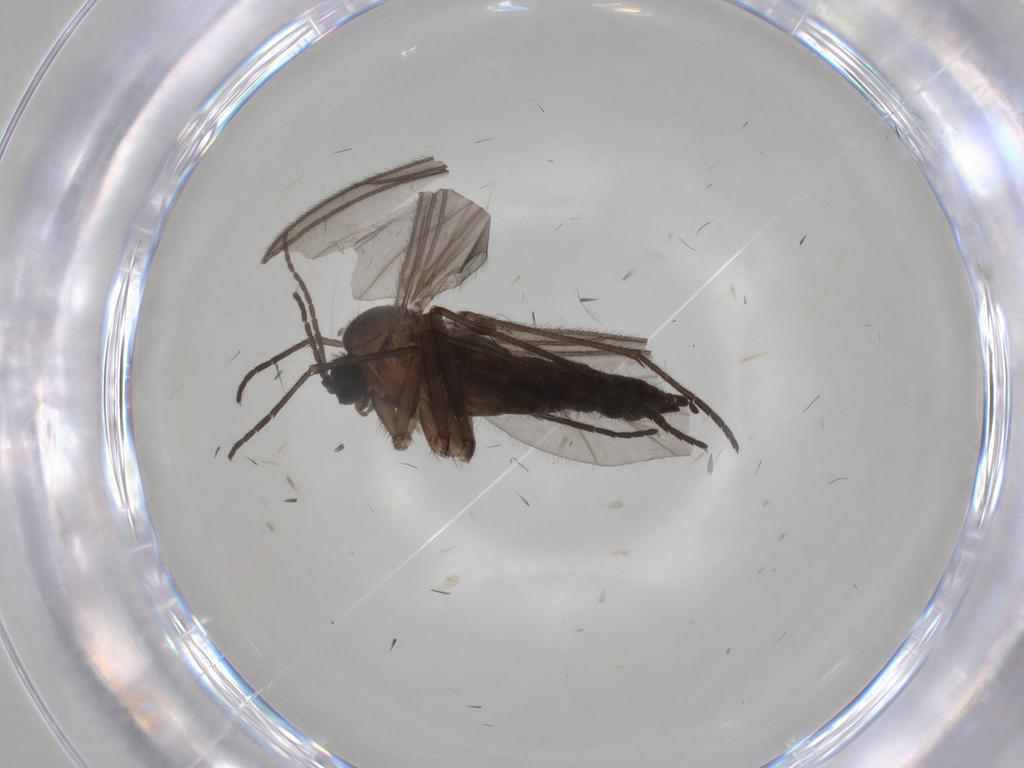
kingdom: Animalia
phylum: Arthropoda
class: Insecta
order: Diptera
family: Sciaridae
